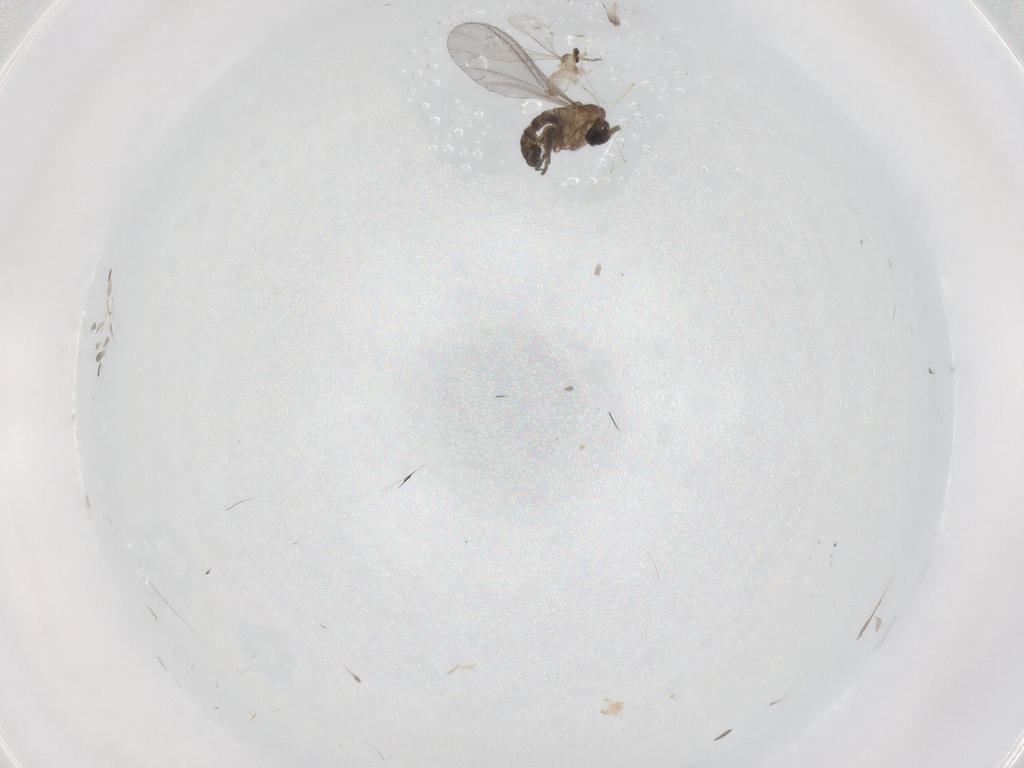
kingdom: Animalia
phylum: Arthropoda
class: Insecta
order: Diptera
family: Sciaridae
